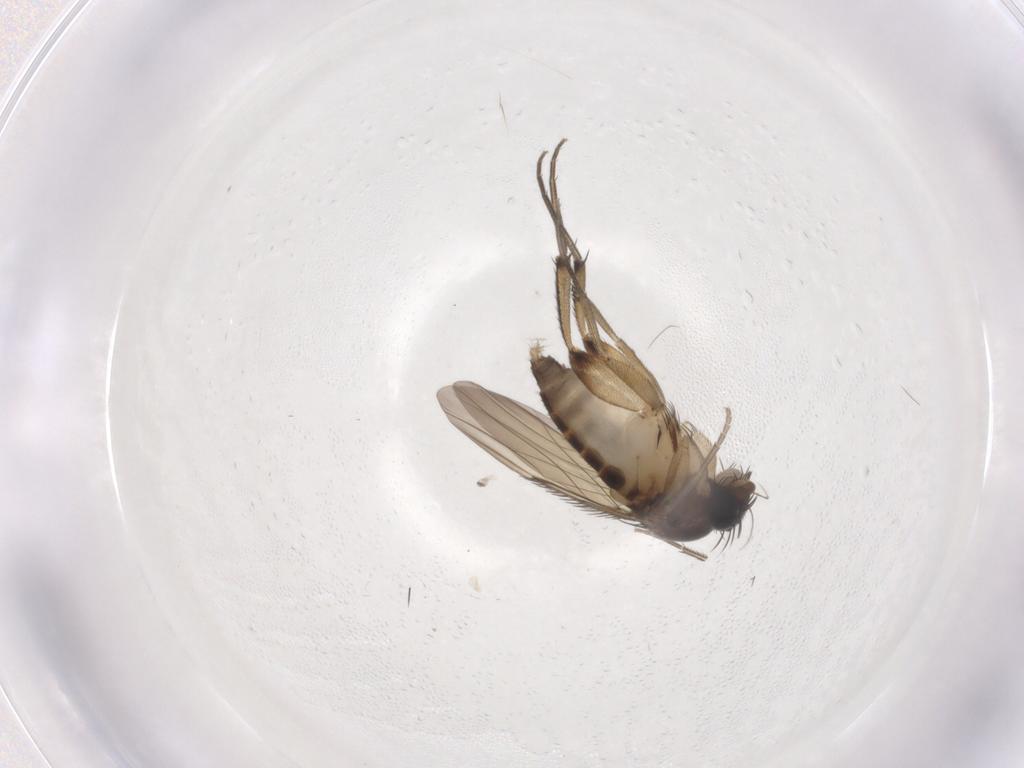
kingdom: Animalia
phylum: Arthropoda
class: Insecta
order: Diptera
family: Phoridae
